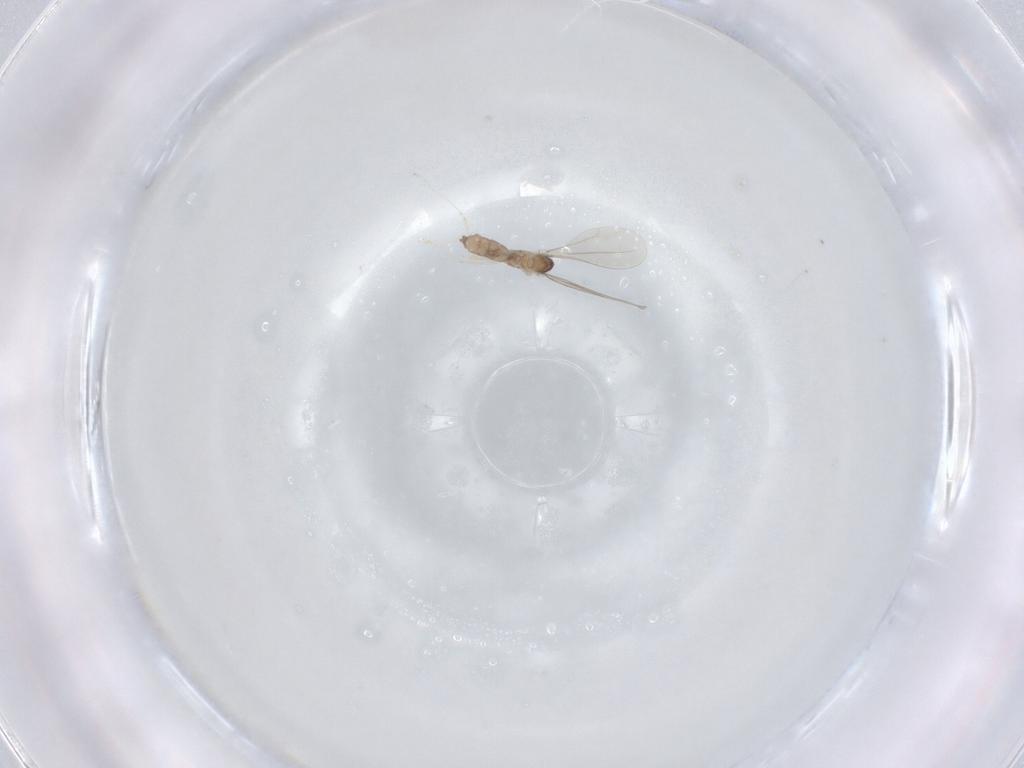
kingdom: Animalia
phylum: Arthropoda
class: Insecta
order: Diptera
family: Cecidomyiidae
